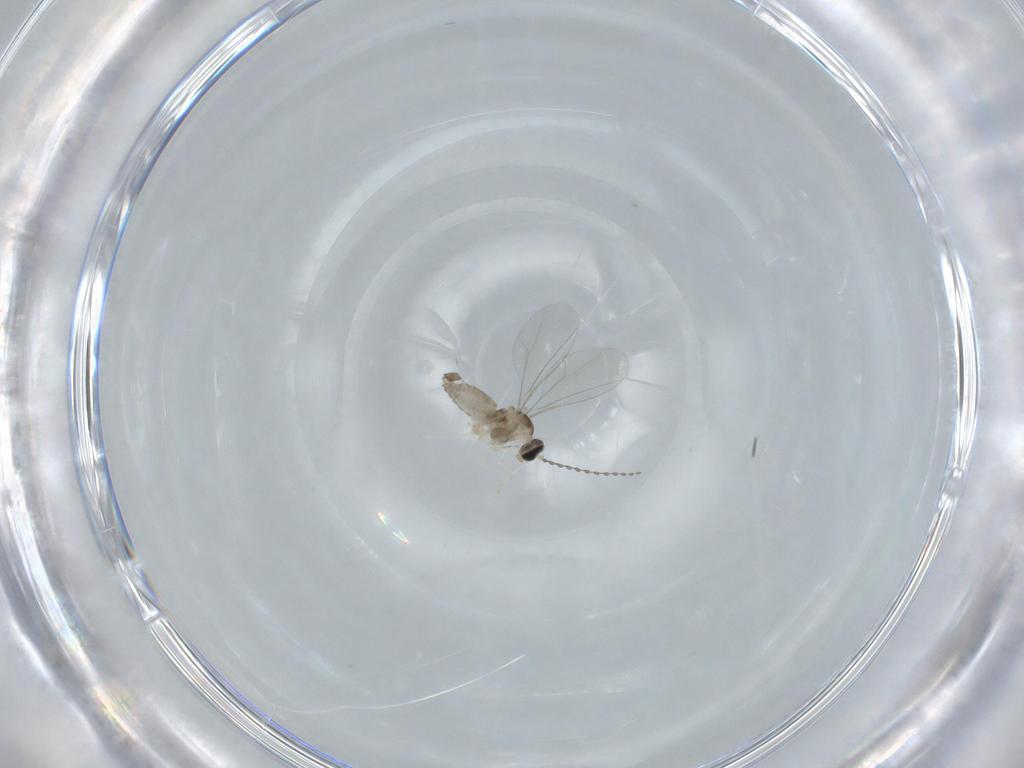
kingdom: Animalia
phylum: Arthropoda
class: Insecta
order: Diptera
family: Cecidomyiidae
